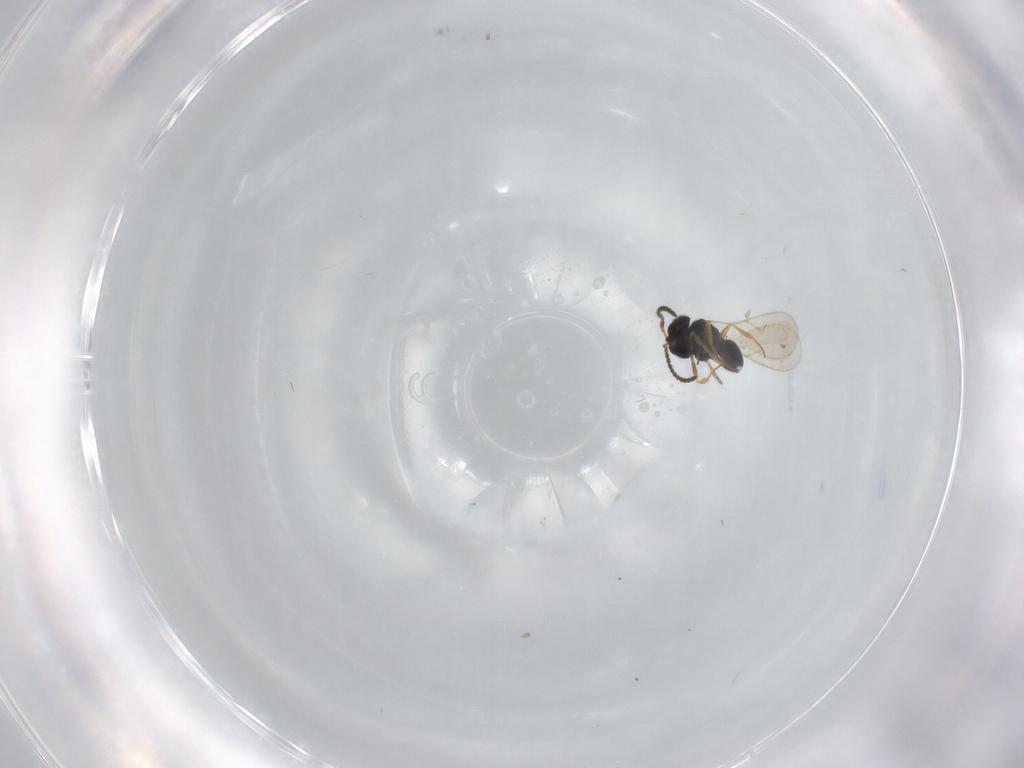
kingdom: Animalia
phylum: Arthropoda
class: Insecta
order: Hymenoptera
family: Scelionidae
